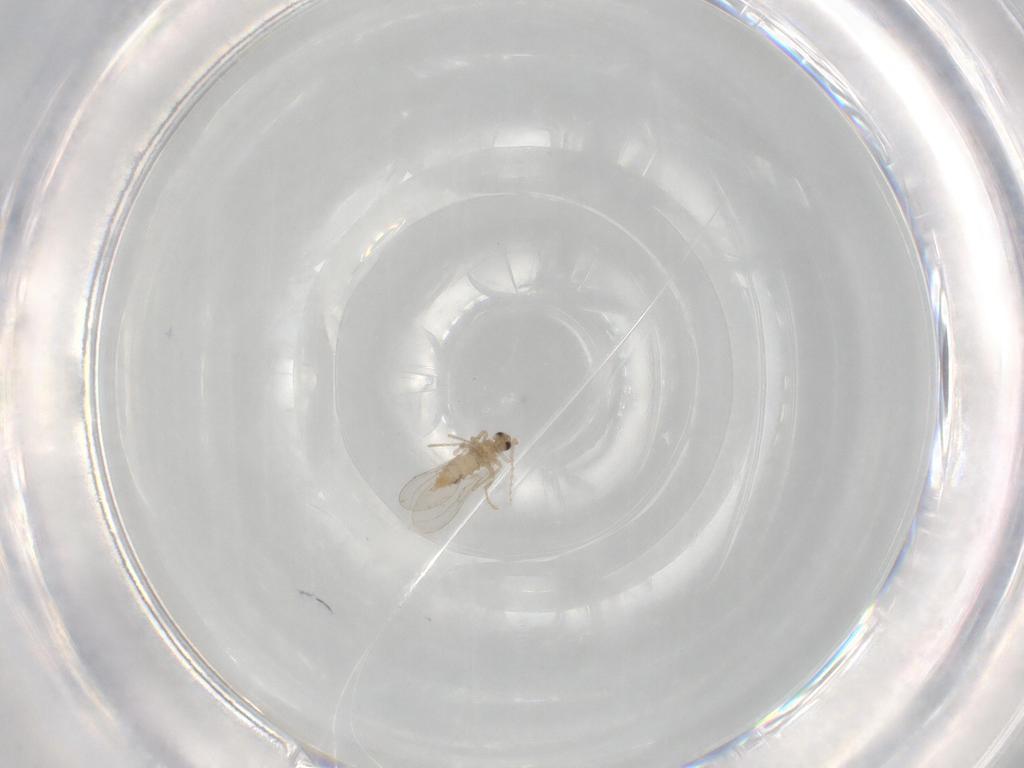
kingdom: Animalia
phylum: Arthropoda
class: Insecta
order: Diptera
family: Cecidomyiidae
